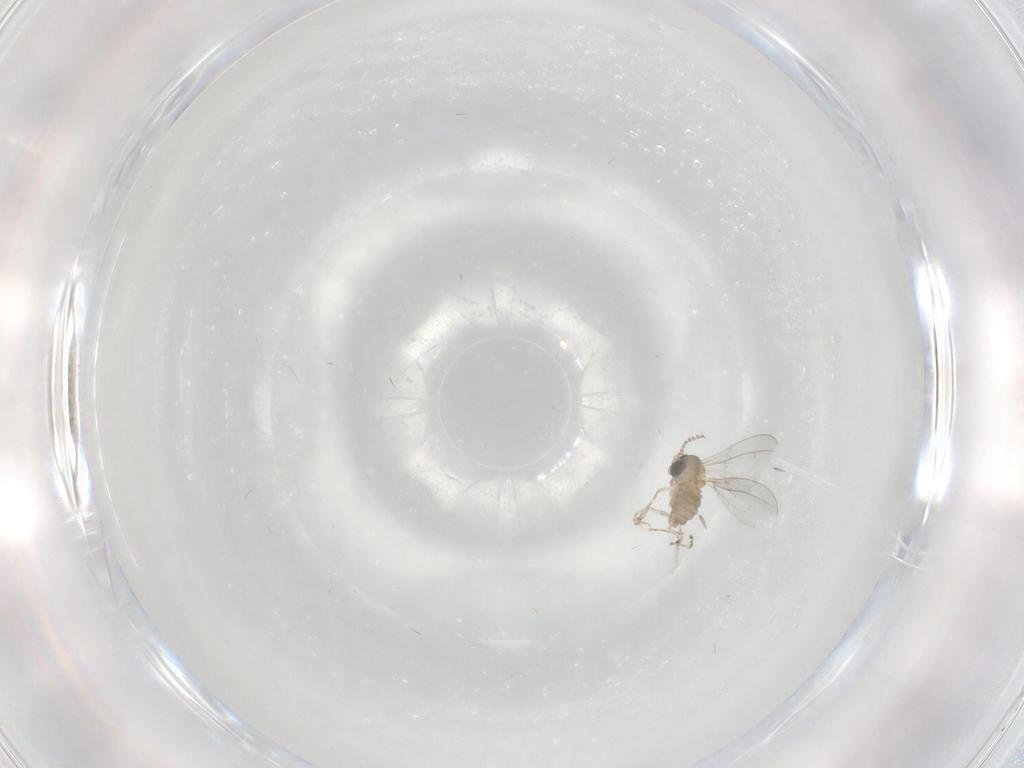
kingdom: Animalia
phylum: Arthropoda
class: Insecta
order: Diptera
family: Cecidomyiidae
